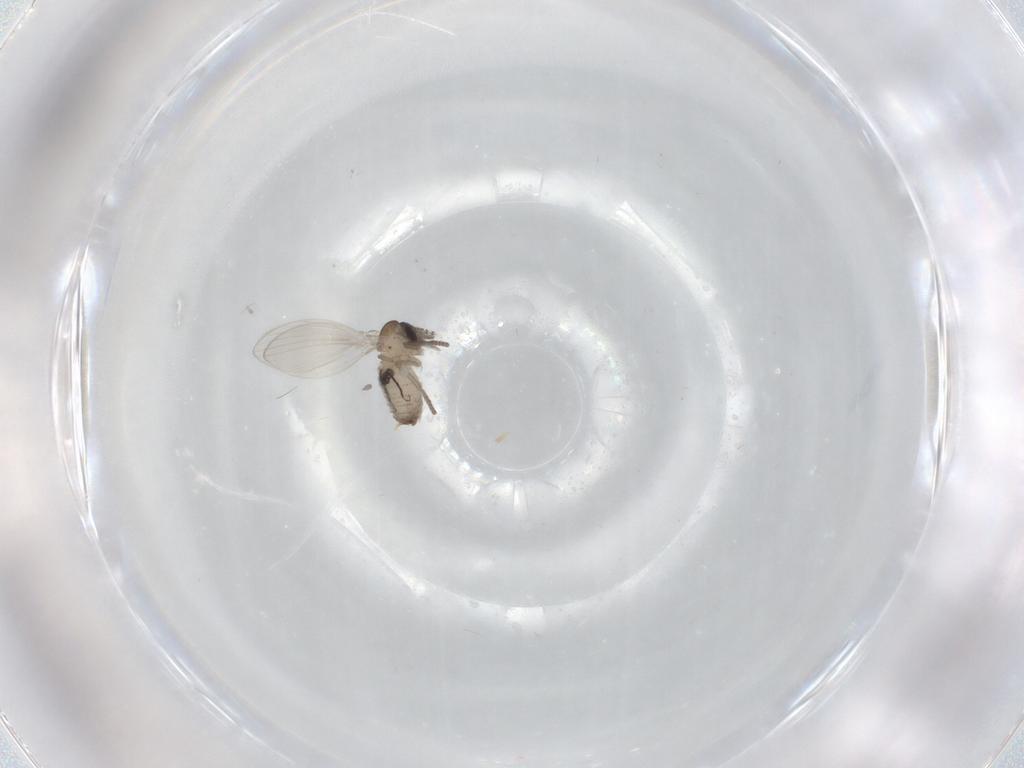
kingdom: Animalia
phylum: Arthropoda
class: Insecta
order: Diptera
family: Psychodidae
